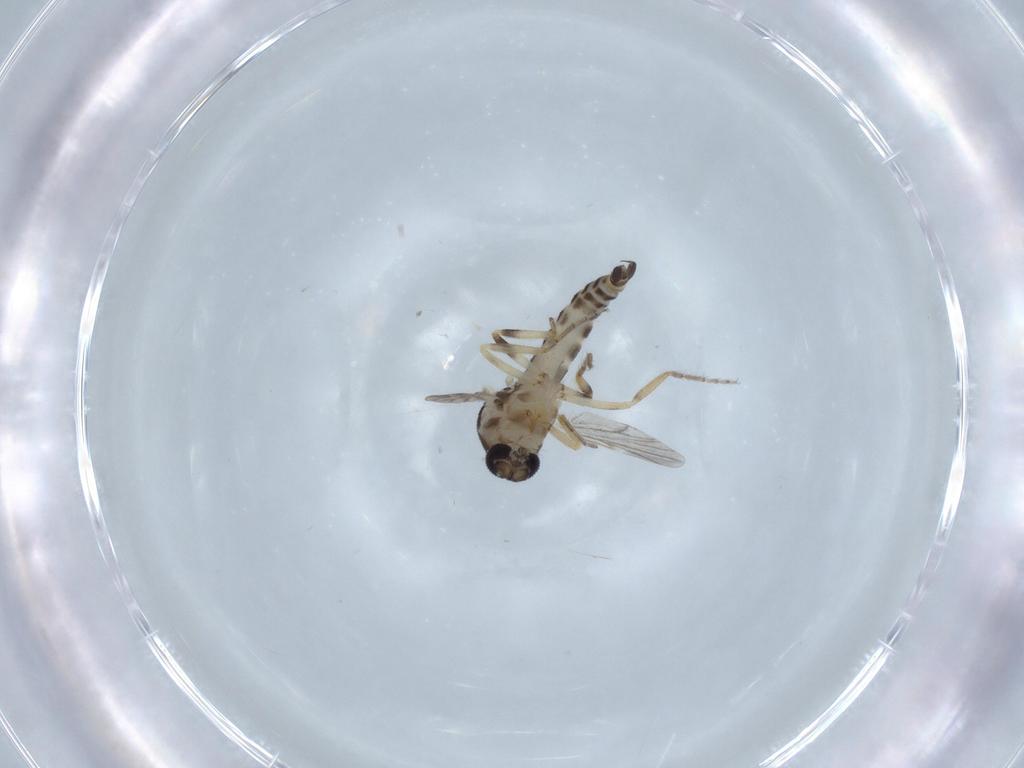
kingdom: Animalia
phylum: Arthropoda
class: Insecta
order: Diptera
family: Ceratopogonidae
